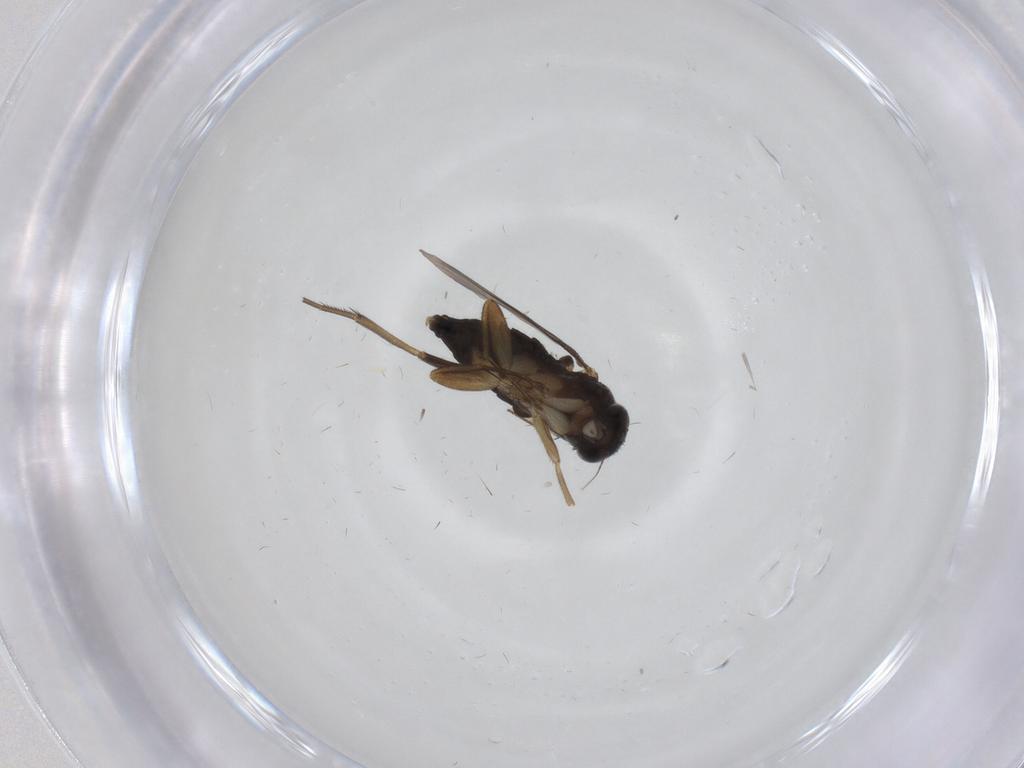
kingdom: Animalia
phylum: Arthropoda
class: Insecta
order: Diptera
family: Phoridae
